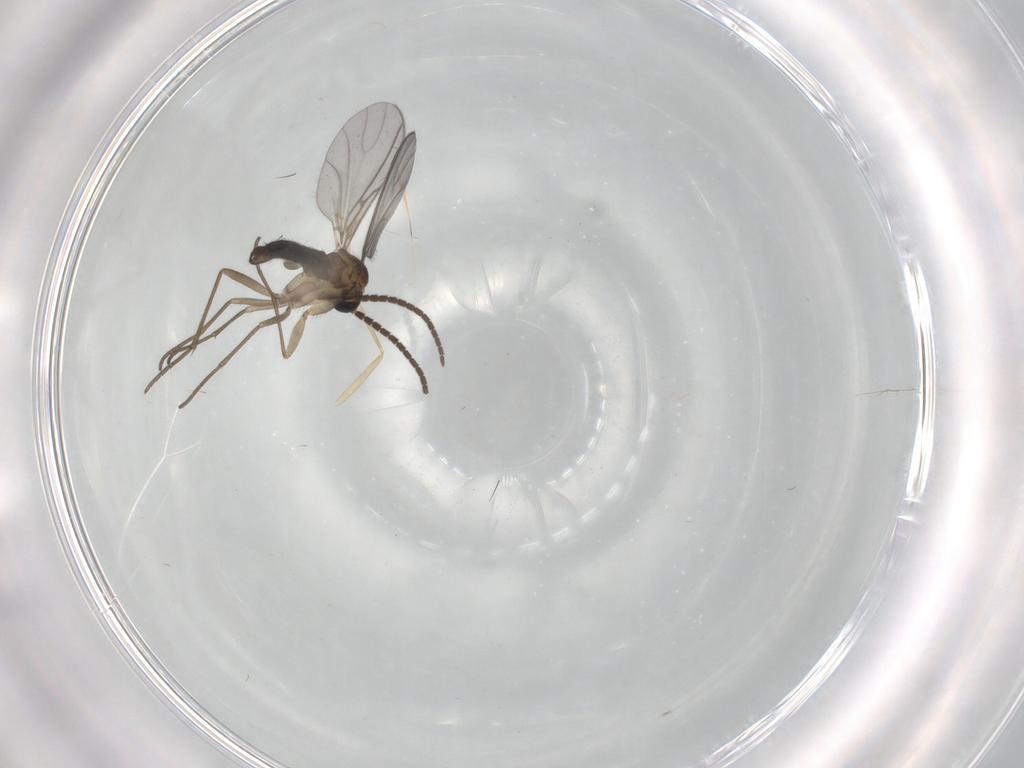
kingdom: Animalia
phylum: Arthropoda
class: Insecta
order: Diptera
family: Sciaridae
